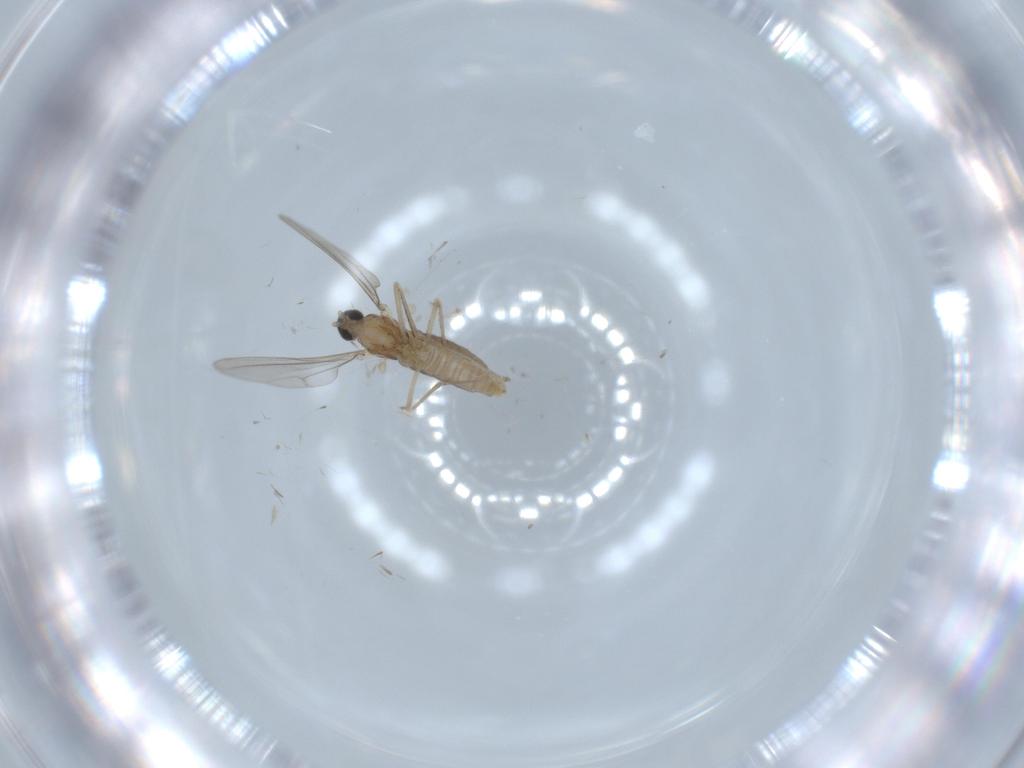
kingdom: Animalia
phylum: Arthropoda
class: Insecta
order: Diptera
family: Cecidomyiidae
